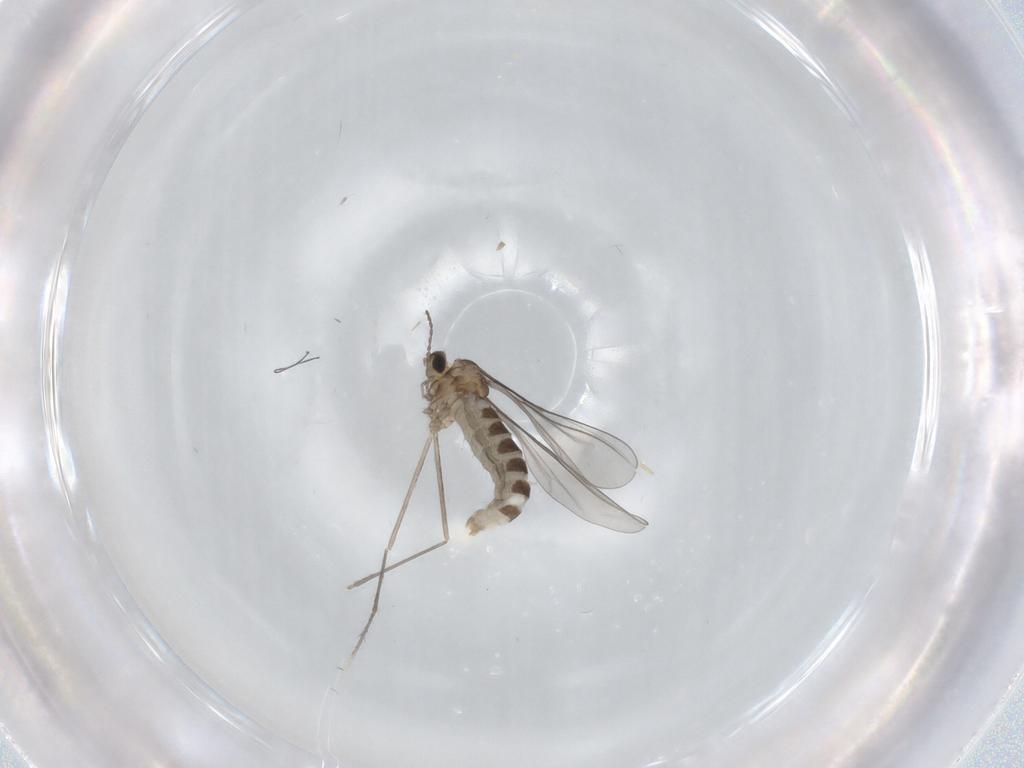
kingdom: Animalia
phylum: Arthropoda
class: Insecta
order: Diptera
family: Cecidomyiidae
